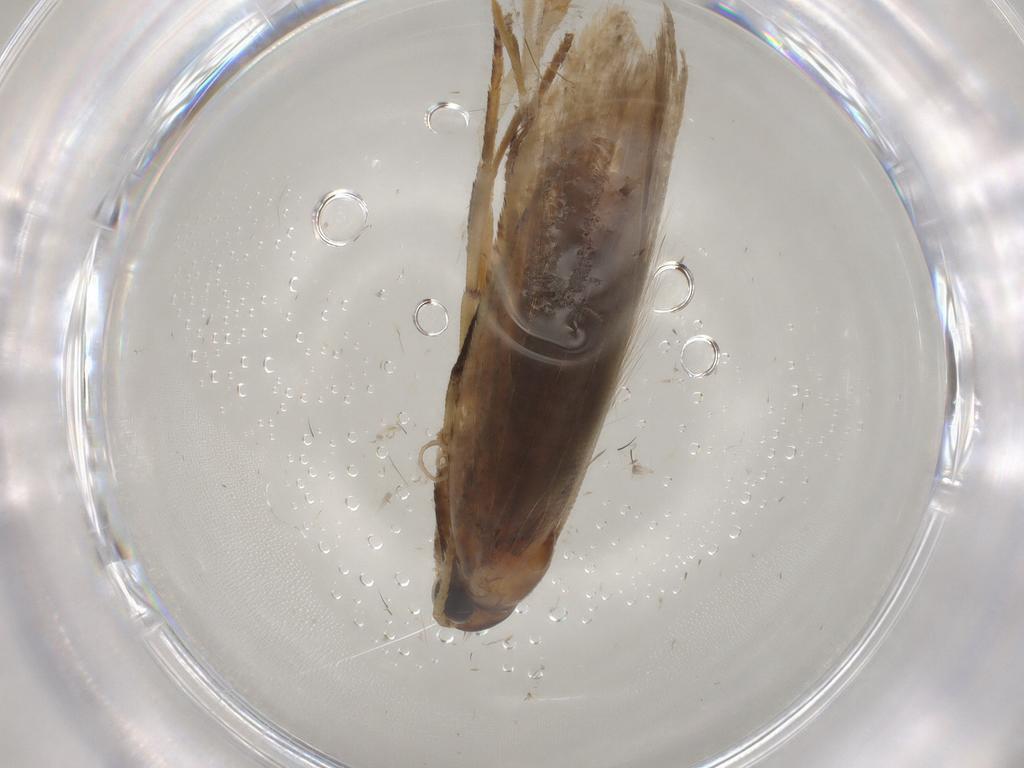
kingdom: Animalia
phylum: Arthropoda
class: Insecta
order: Lepidoptera
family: Gelechiidae
